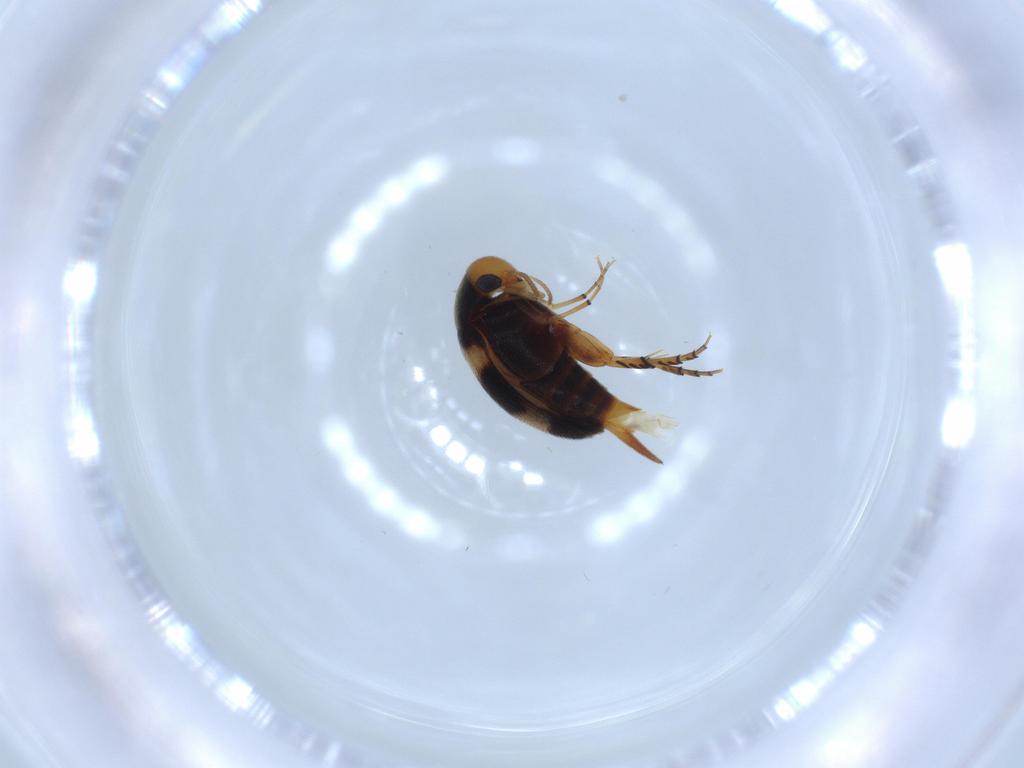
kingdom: Animalia
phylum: Arthropoda
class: Insecta
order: Coleoptera
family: Mordellidae
